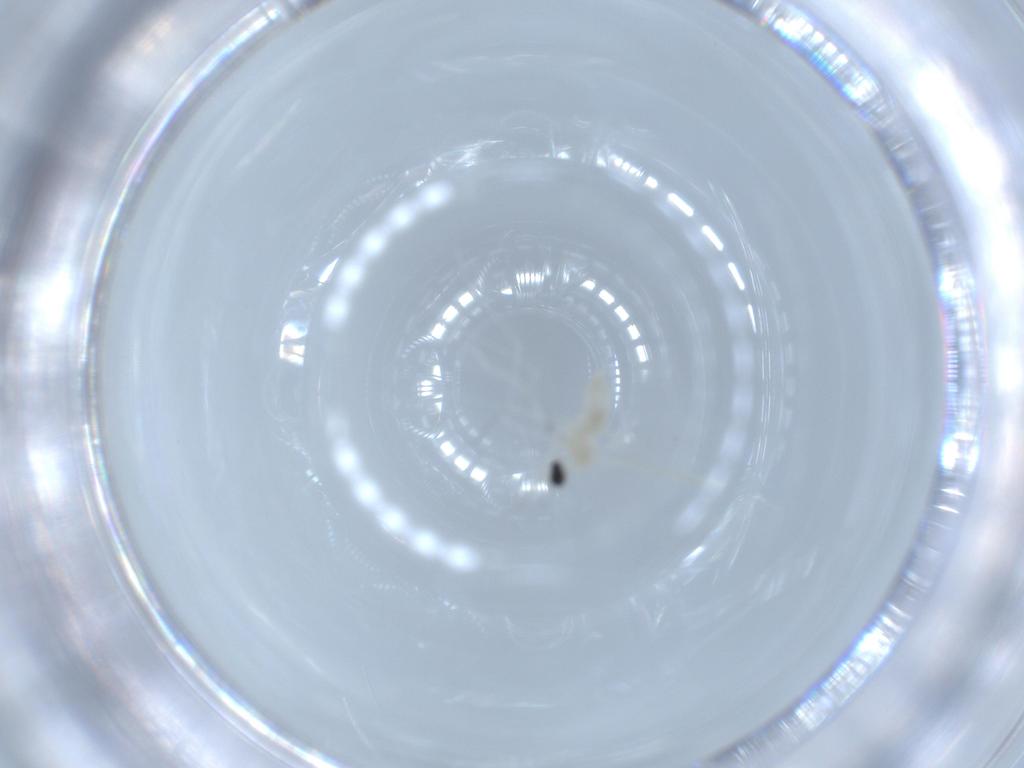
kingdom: Animalia
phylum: Arthropoda
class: Insecta
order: Diptera
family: Cecidomyiidae
